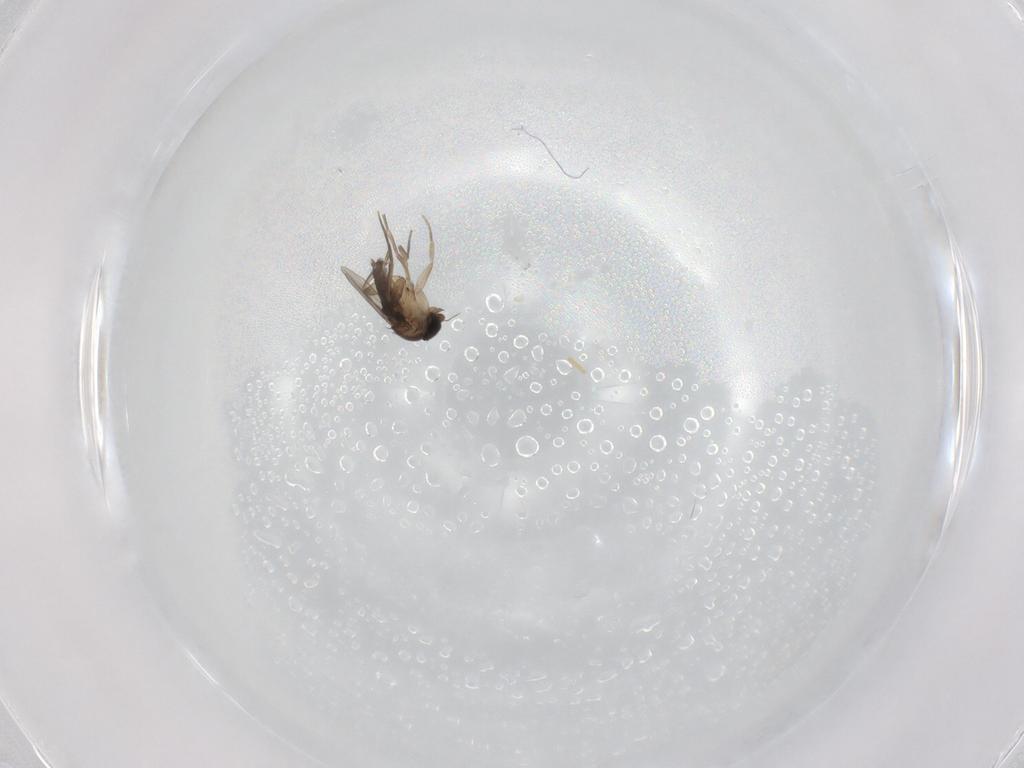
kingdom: Animalia
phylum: Arthropoda
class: Insecta
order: Diptera
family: Phoridae
